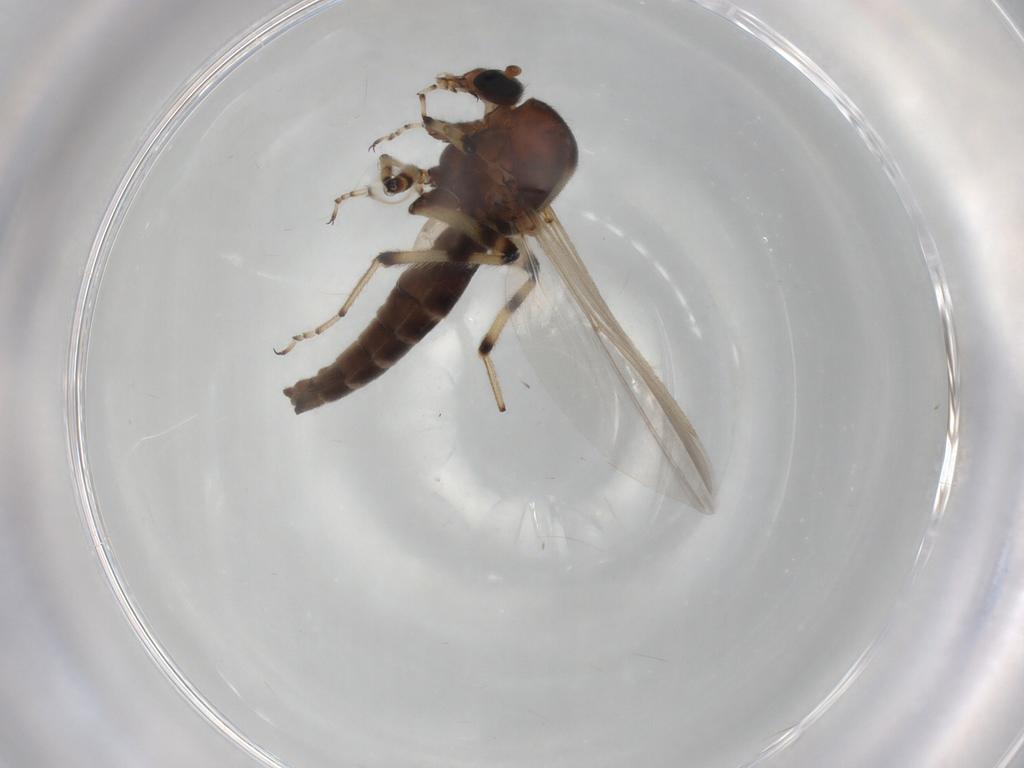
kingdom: Animalia
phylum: Arthropoda
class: Insecta
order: Diptera
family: Ceratopogonidae
